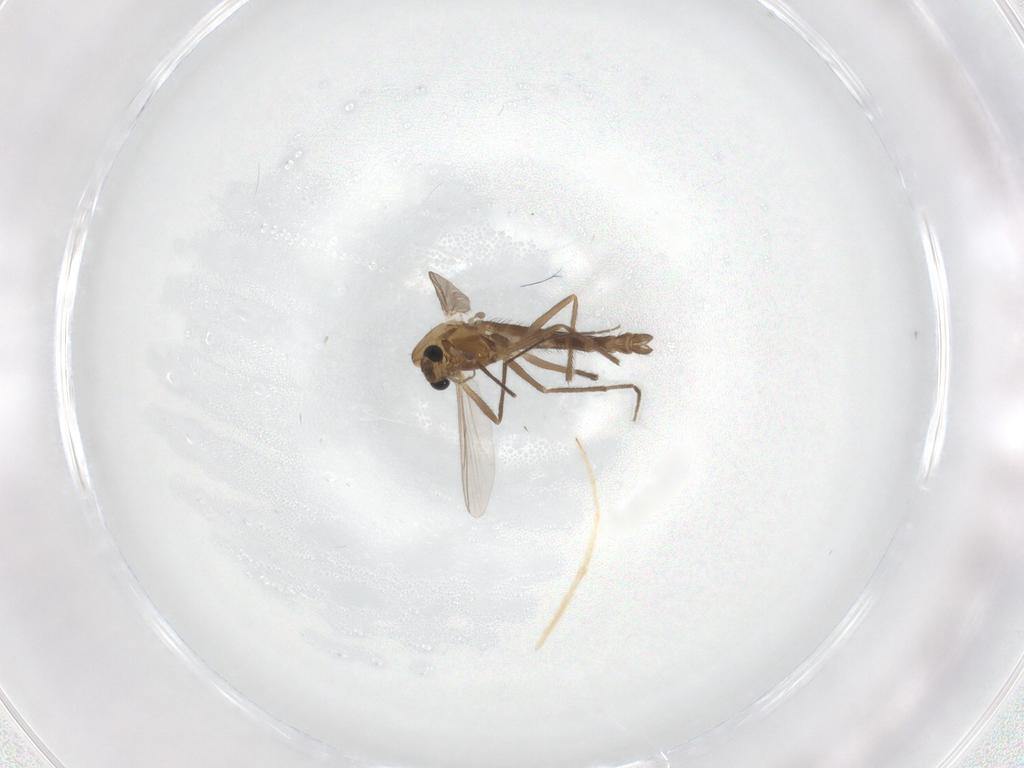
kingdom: Animalia
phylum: Arthropoda
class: Insecta
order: Diptera
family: Chironomidae
